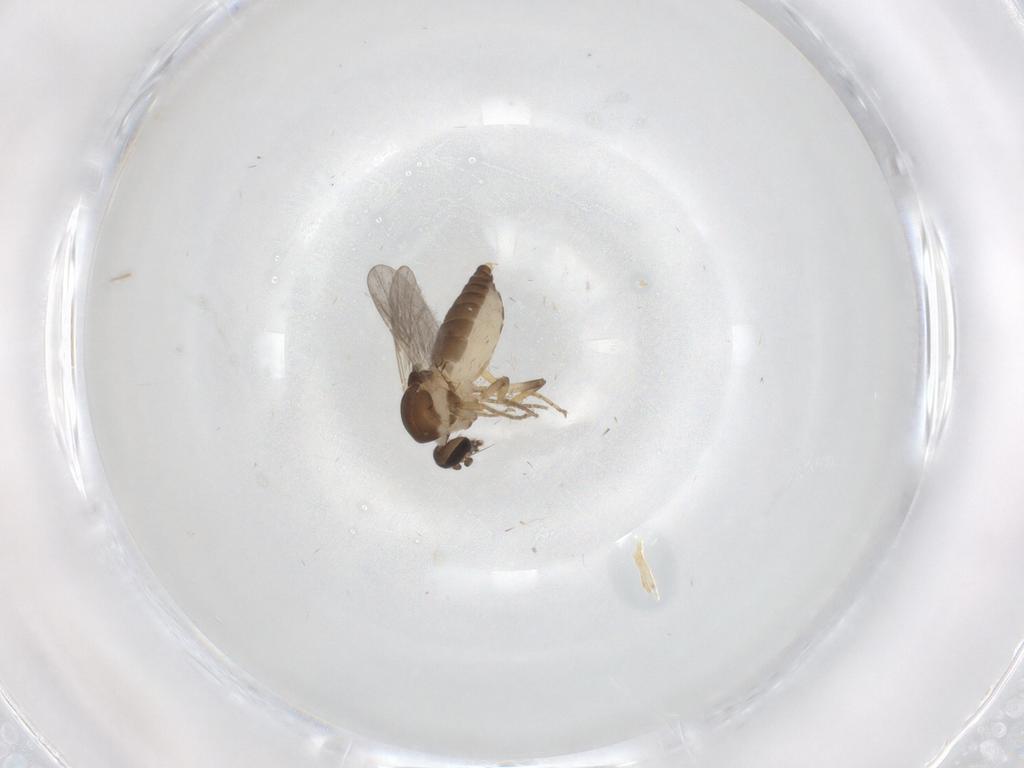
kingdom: Animalia
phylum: Arthropoda
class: Insecta
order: Diptera
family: Ceratopogonidae
